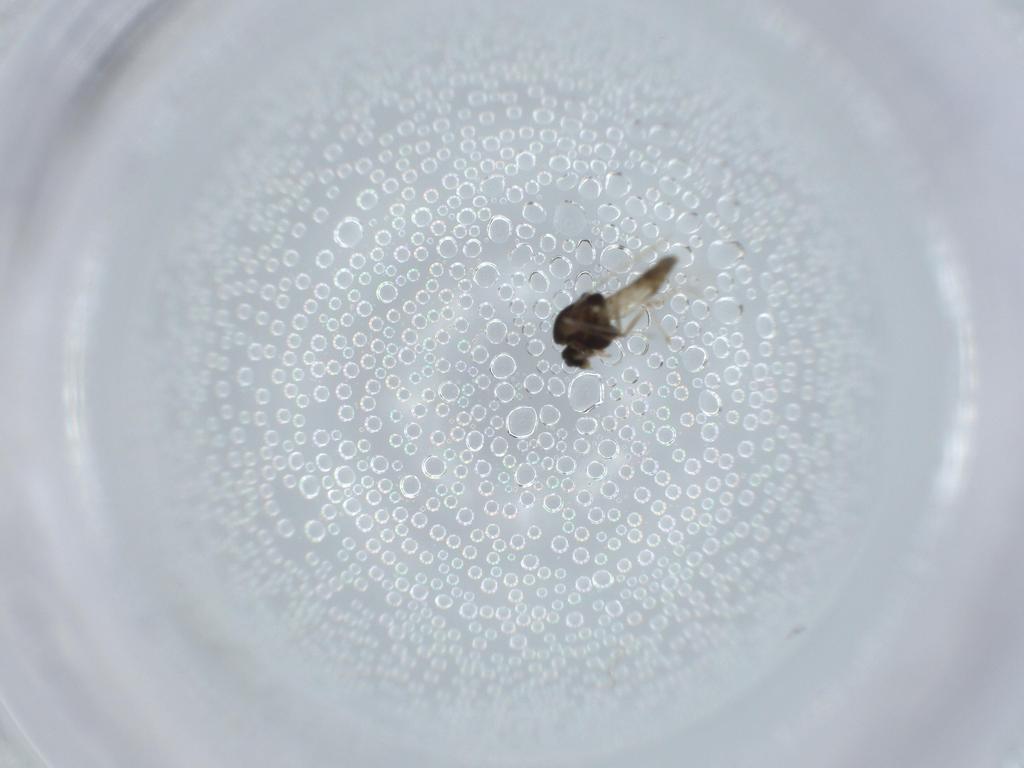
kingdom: Animalia
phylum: Arthropoda
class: Insecta
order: Diptera
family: Chironomidae
